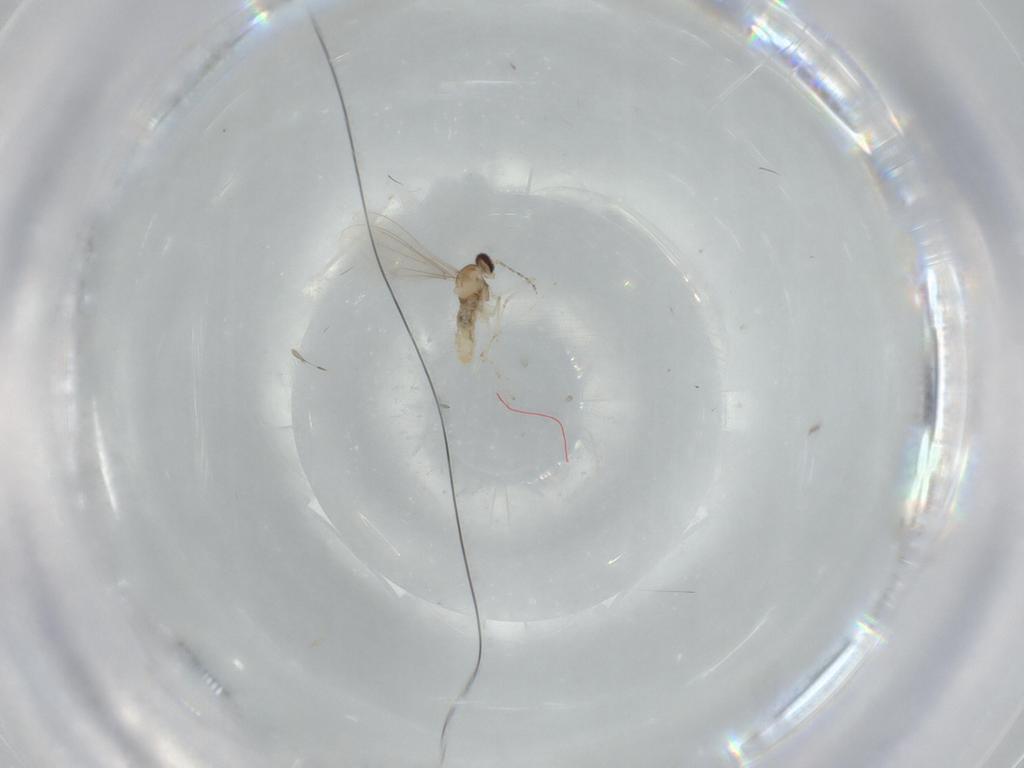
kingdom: Animalia
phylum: Arthropoda
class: Insecta
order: Diptera
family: Cecidomyiidae
